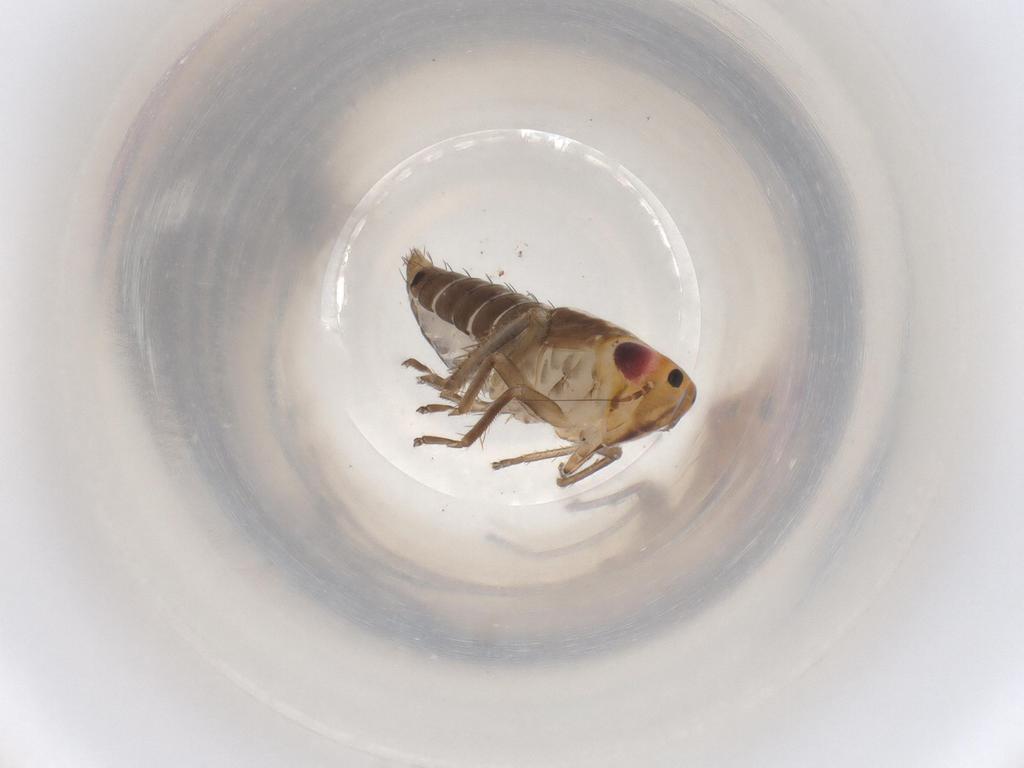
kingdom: Animalia
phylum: Arthropoda
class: Insecta
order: Hemiptera
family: Cicadellidae
